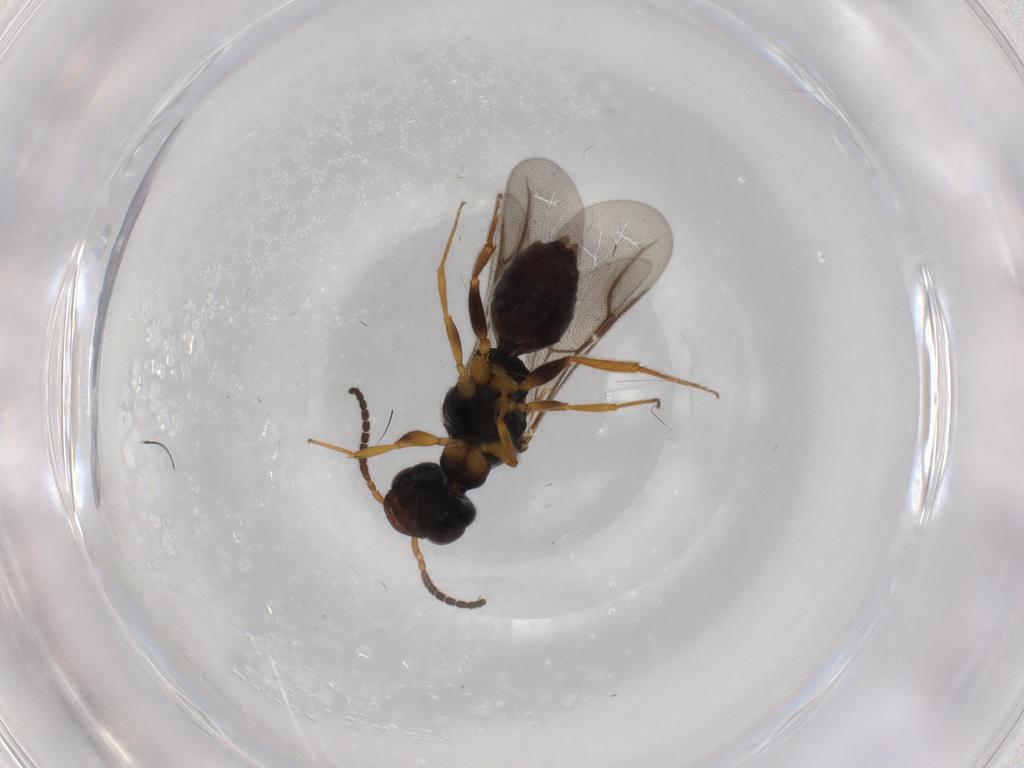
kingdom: Animalia
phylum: Arthropoda
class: Insecta
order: Hymenoptera
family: Bethylidae
